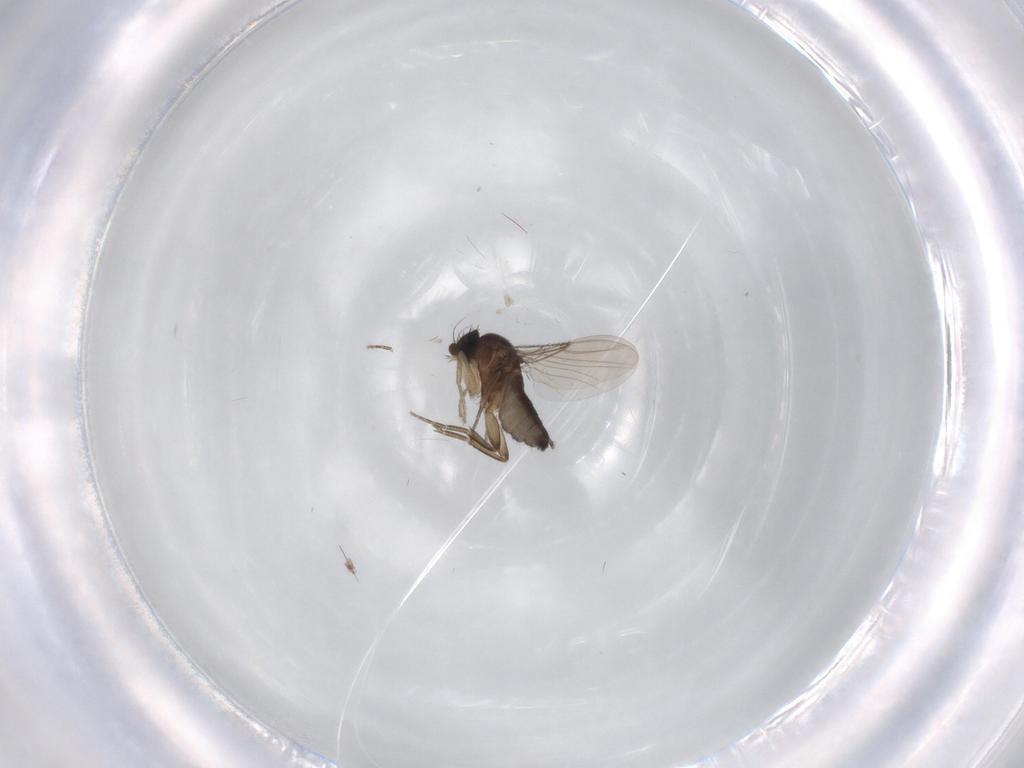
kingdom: Animalia
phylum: Arthropoda
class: Insecta
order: Diptera
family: Phoridae
